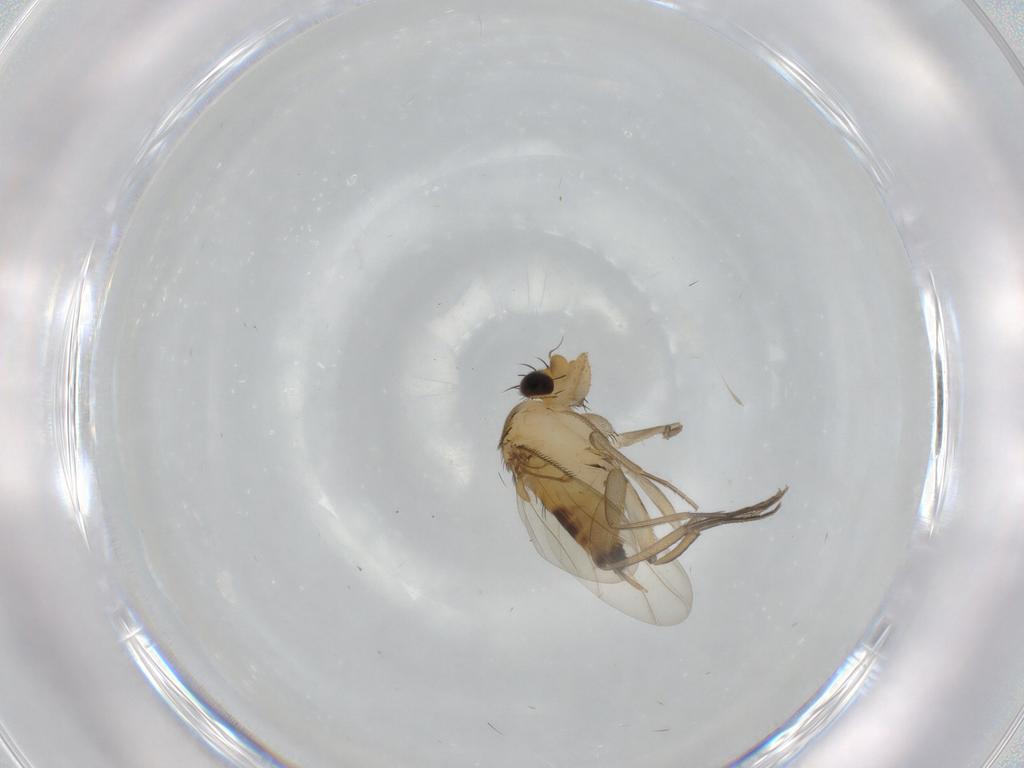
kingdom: Animalia
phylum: Arthropoda
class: Insecta
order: Diptera
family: Phoridae
